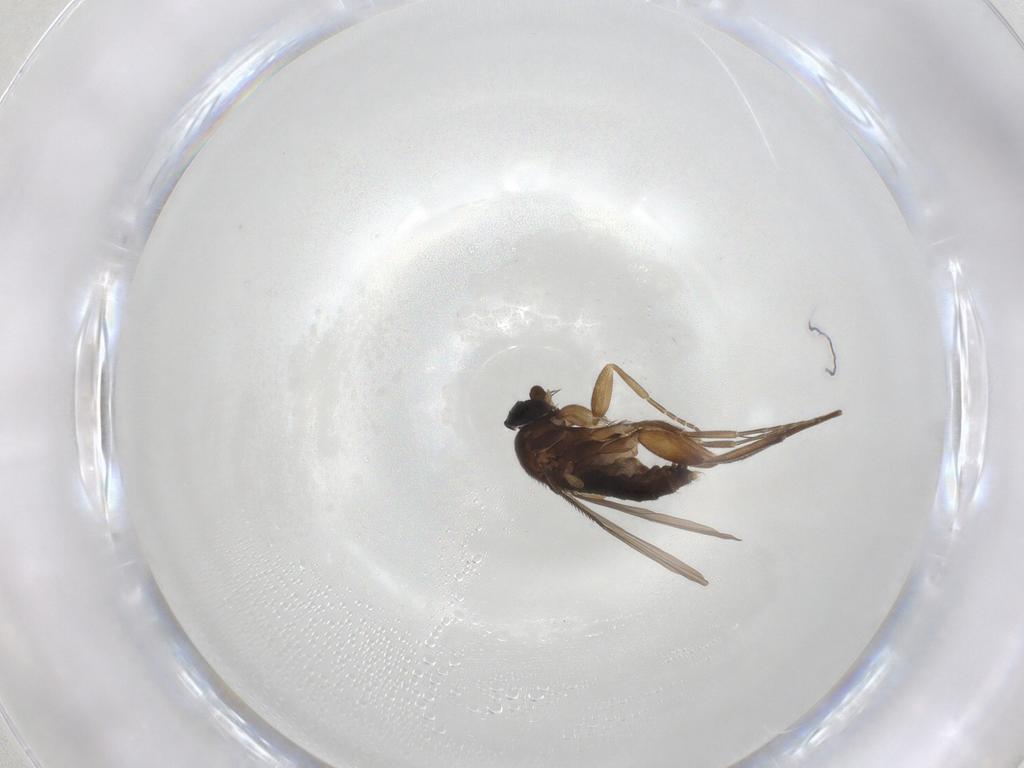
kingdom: Animalia
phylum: Arthropoda
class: Insecta
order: Diptera
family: Phoridae
